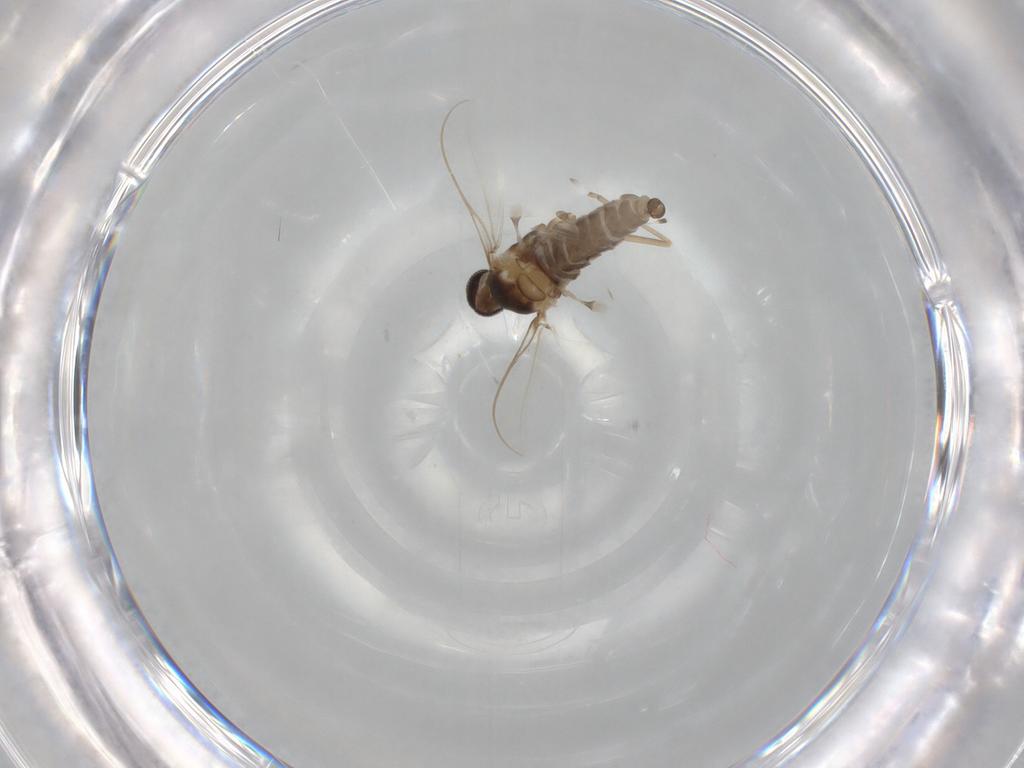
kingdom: Animalia
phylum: Arthropoda
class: Insecta
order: Diptera
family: Cecidomyiidae
